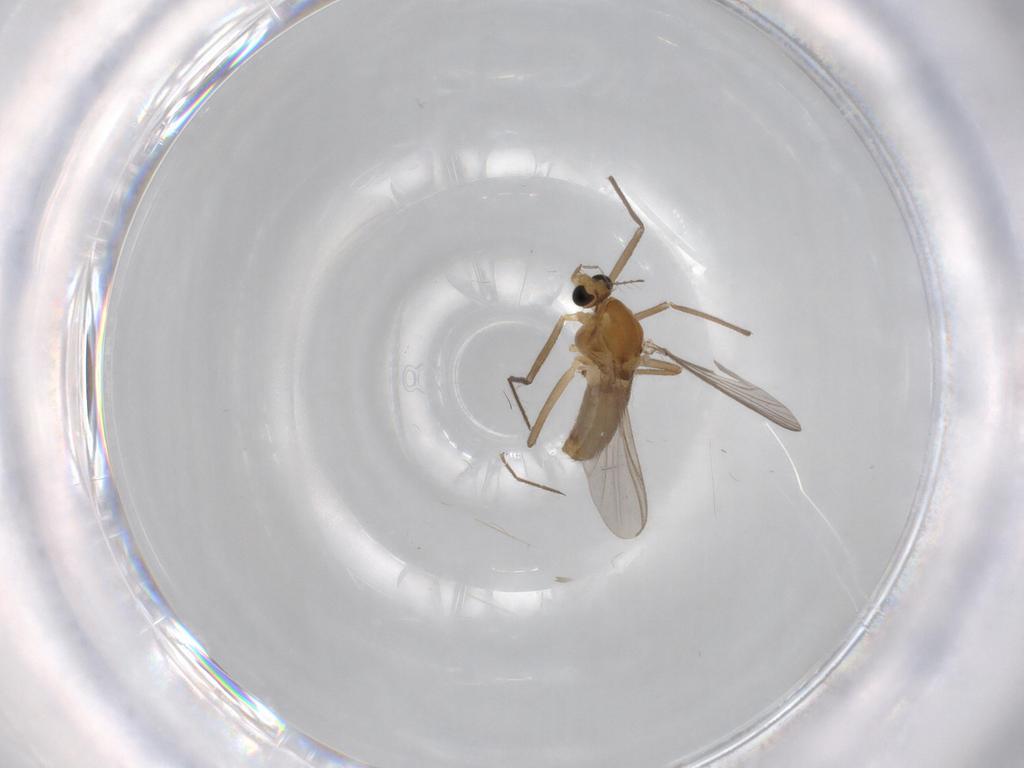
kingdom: Animalia
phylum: Arthropoda
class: Insecta
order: Diptera
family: Chironomidae
